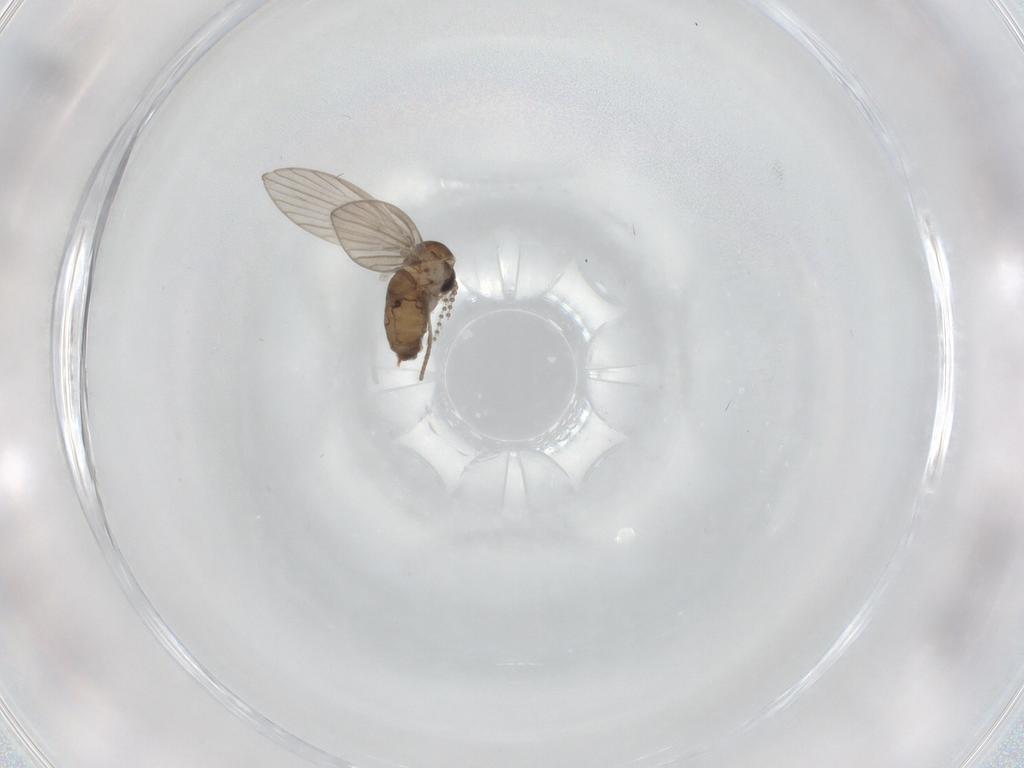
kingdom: Animalia
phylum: Arthropoda
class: Insecta
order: Diptera
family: Psychodidae
